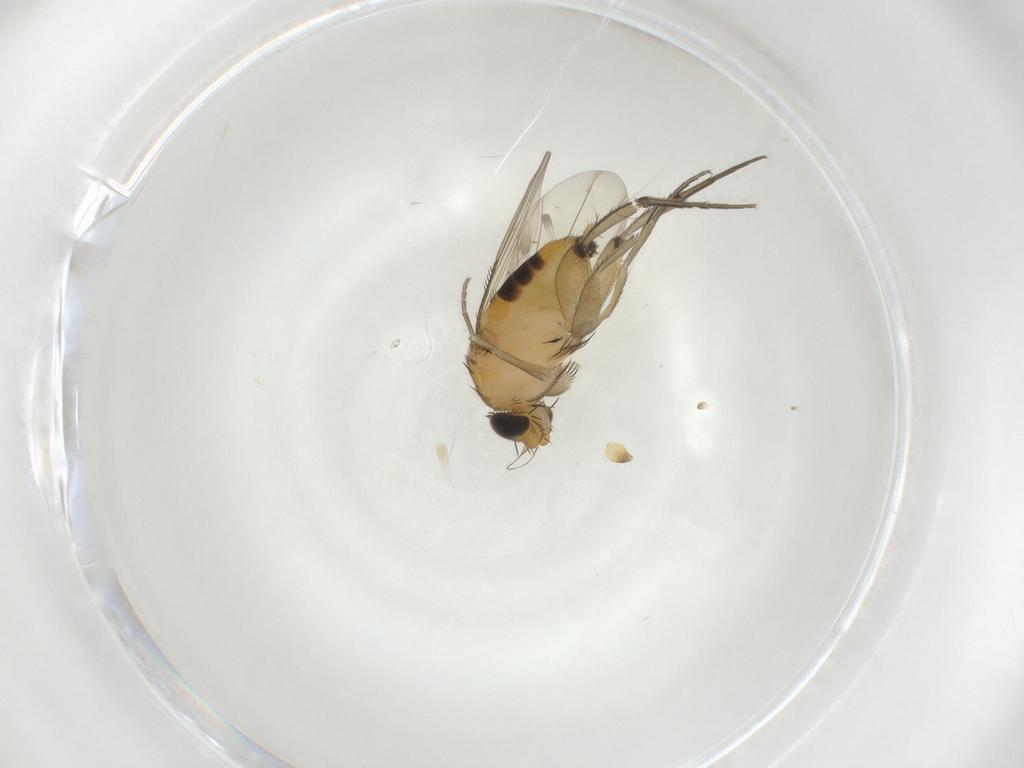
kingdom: Animalia
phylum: Arthropoda
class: Insecta
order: Diptera
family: Phoridae
